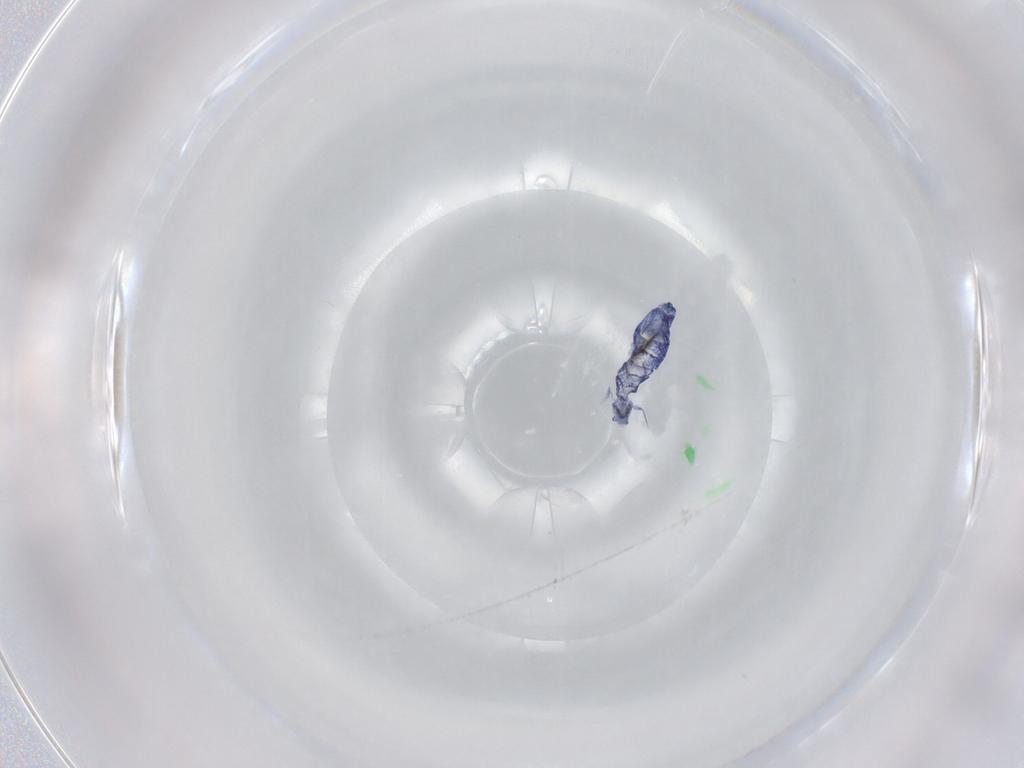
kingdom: Animalia
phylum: Arthropoda
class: Collembola
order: Entomobryomorpha
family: Entomobryidae
